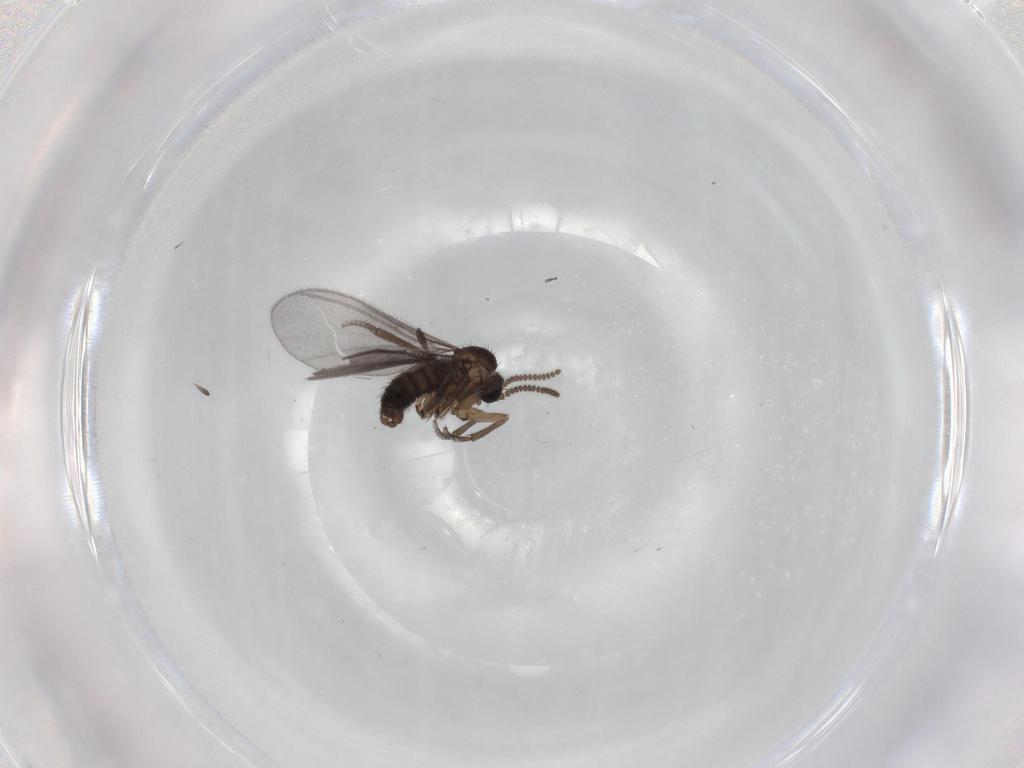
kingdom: Animalia
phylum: Arthropoda
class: Insecta
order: Diptera
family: Sciaridae
